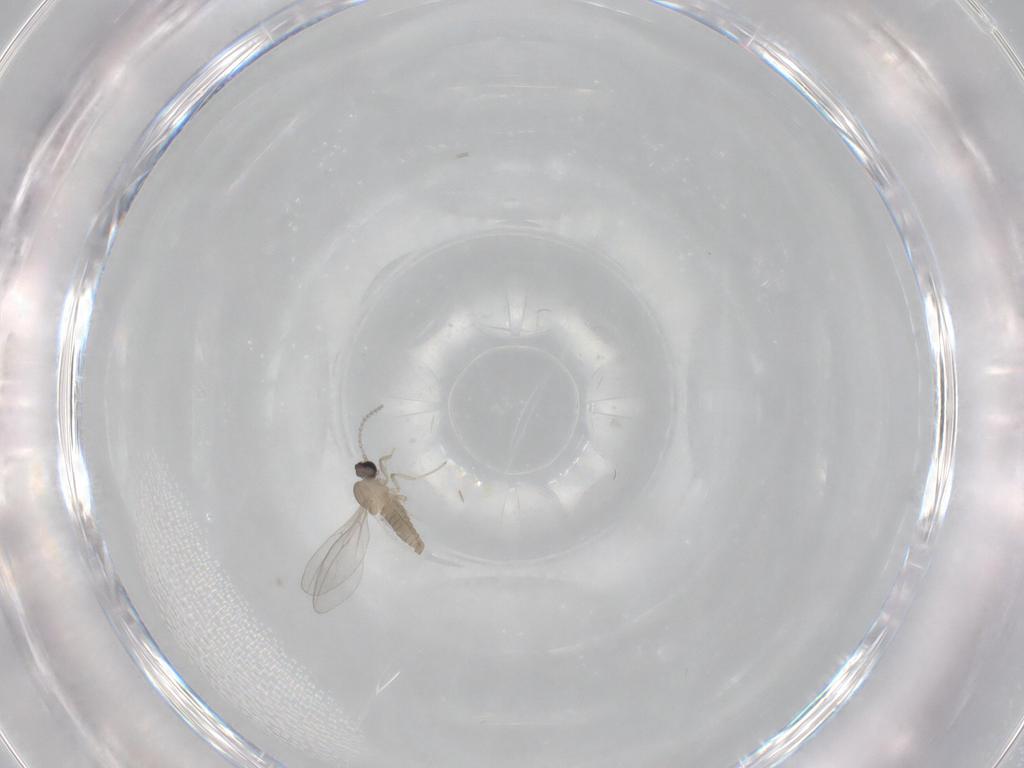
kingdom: Animalia
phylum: Arthropoda
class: Insecta
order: Diptera
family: Cecidomyiidae
